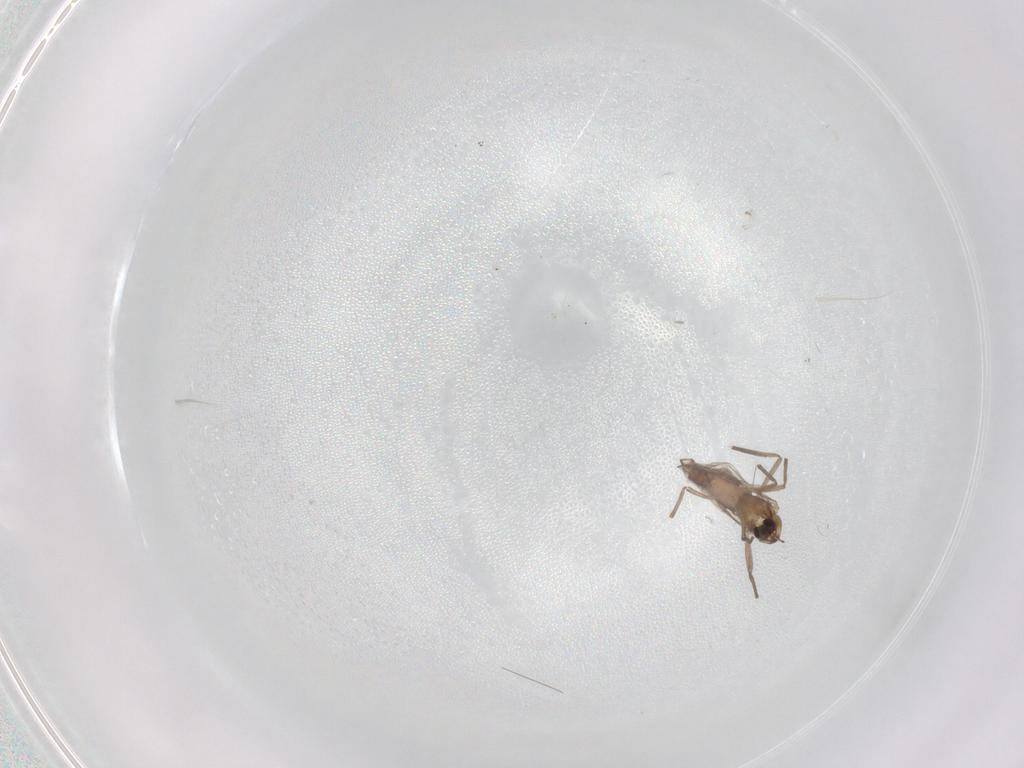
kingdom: Animalia
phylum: Arthropoda
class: Insecta
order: Diptera
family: Chironomidae
